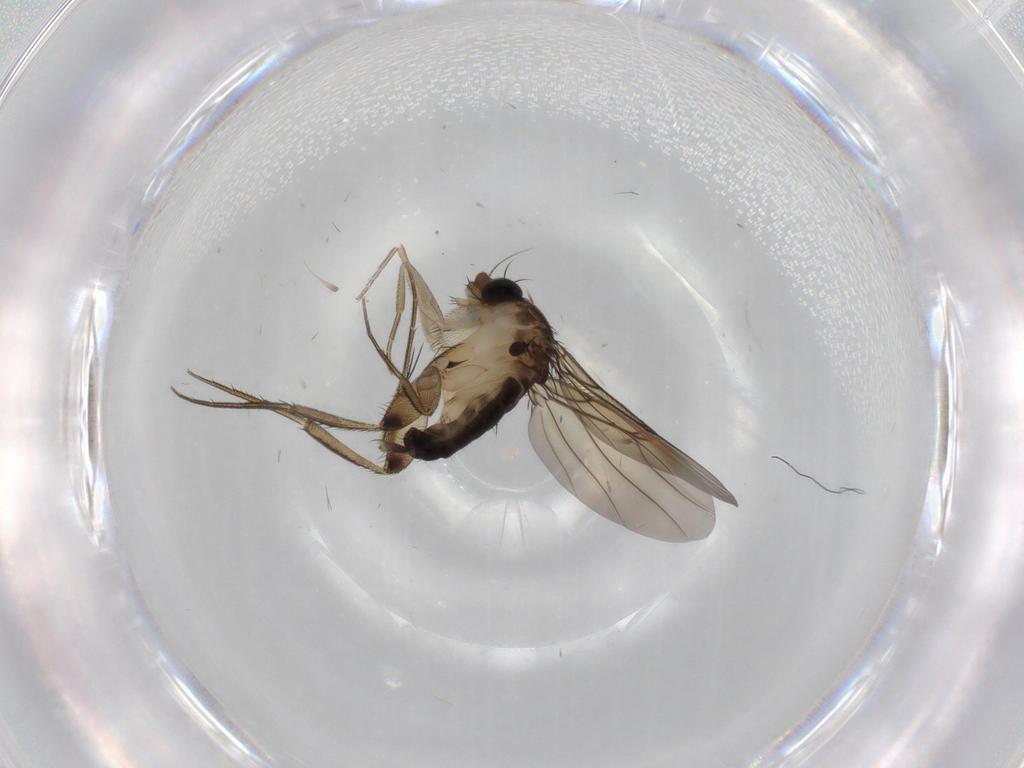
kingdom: Animalia
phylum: Arthropoda
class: Insecta
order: Diptera
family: Phoridae
